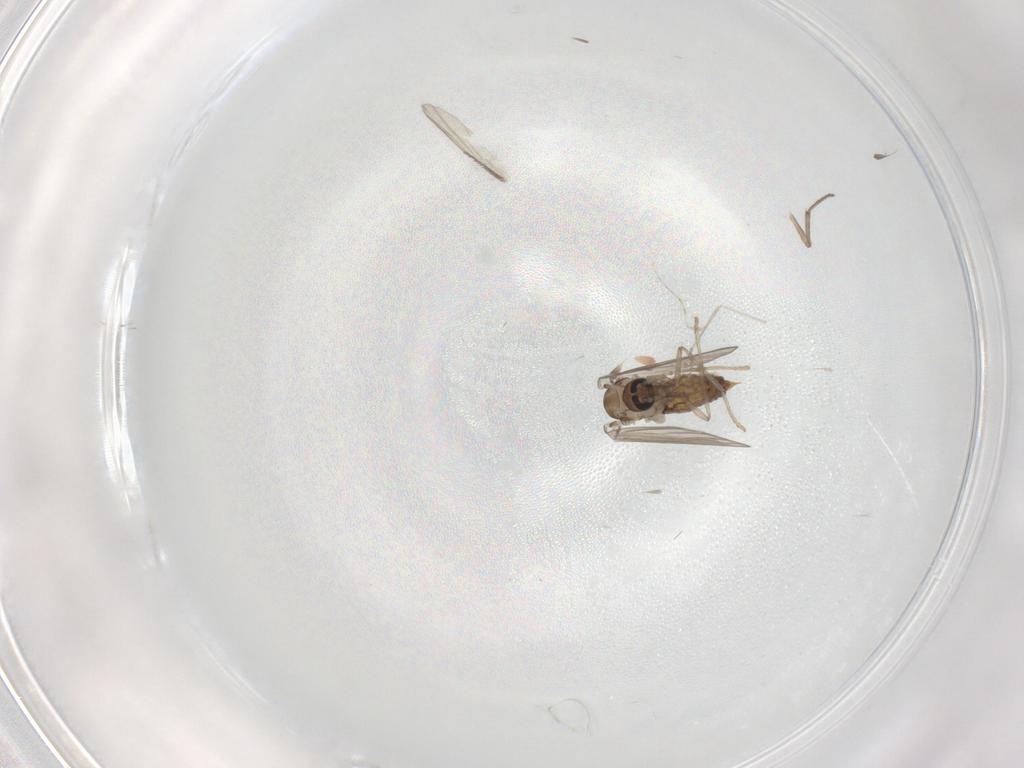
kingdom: Animalia
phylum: Arthropoda
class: Insecta
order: Diptera
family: Psychodidae
